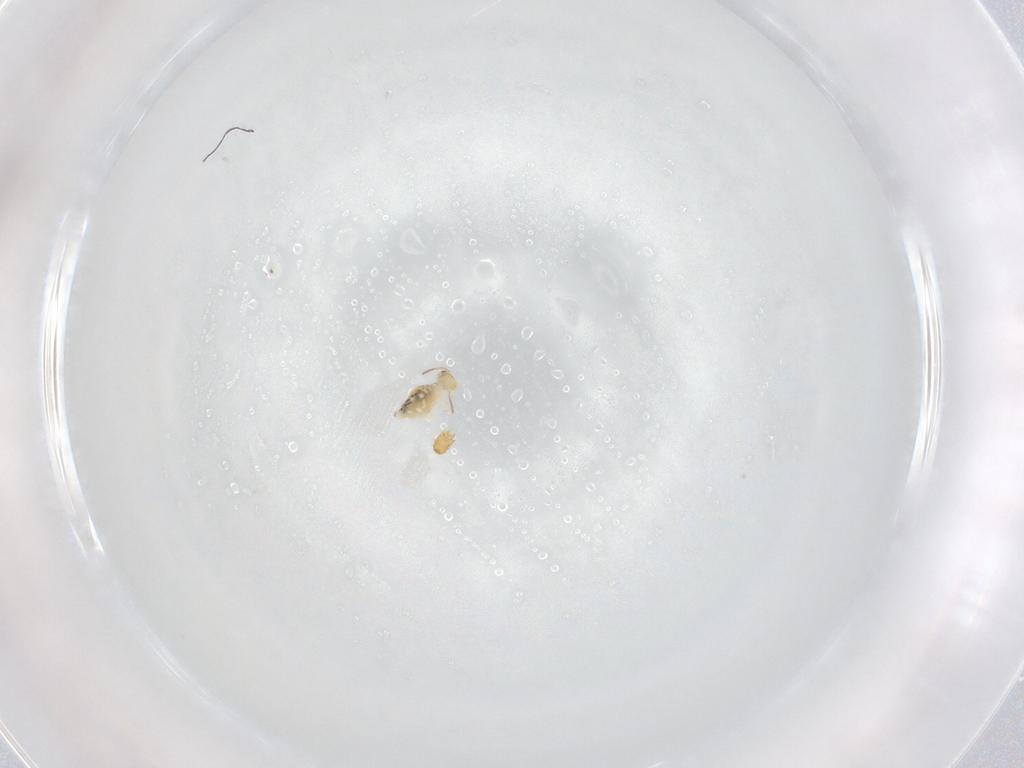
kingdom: Animalia
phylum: Arthropoda
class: Collembola
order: Symphypleona
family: Bourletiellidae
